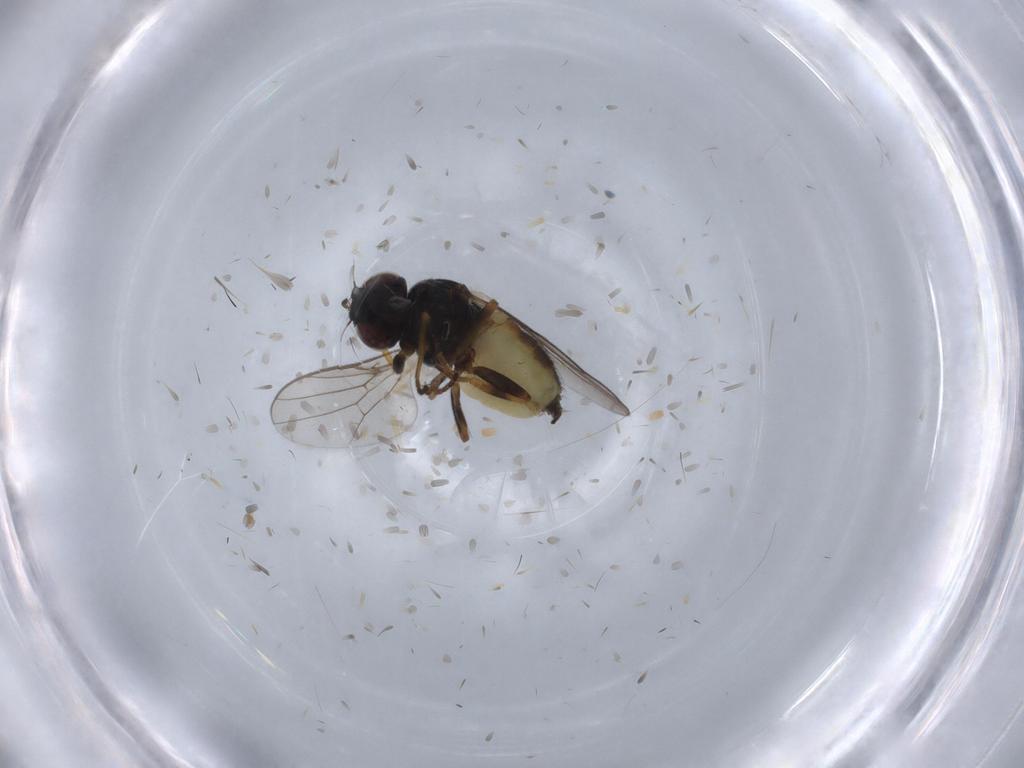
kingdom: Animalia
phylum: Arthropoda
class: Insecta
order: Diptera
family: Chloropidae
